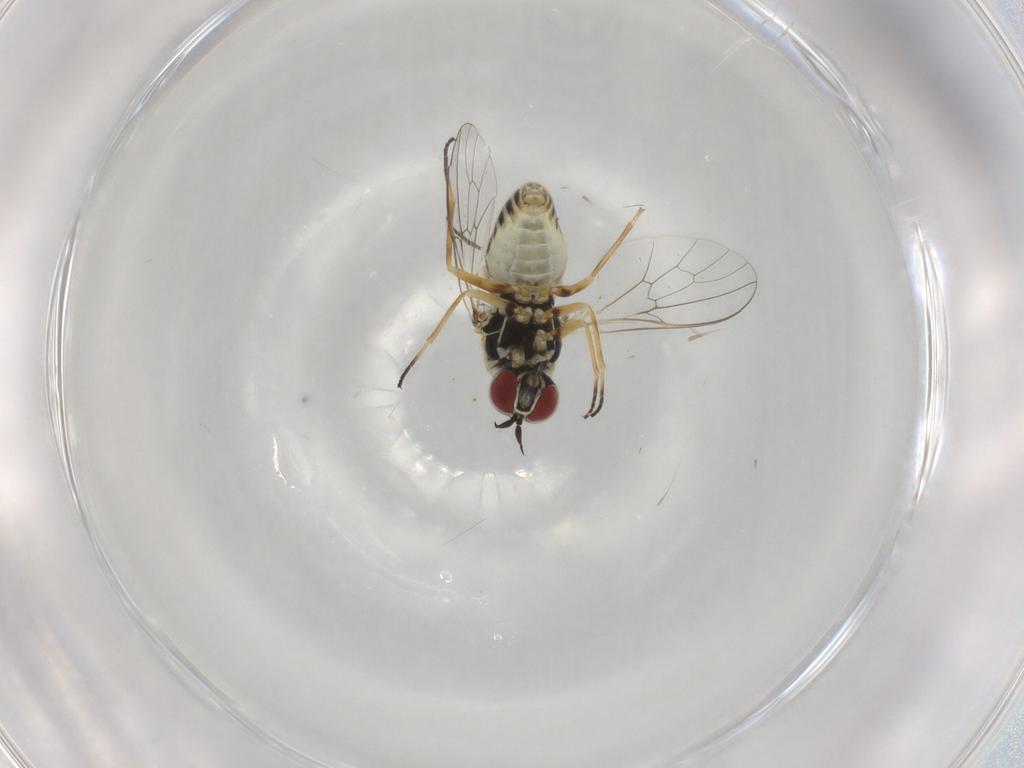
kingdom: Animalia
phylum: Arthropoda
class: Insecta
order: Diptera
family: Bombyliidae
